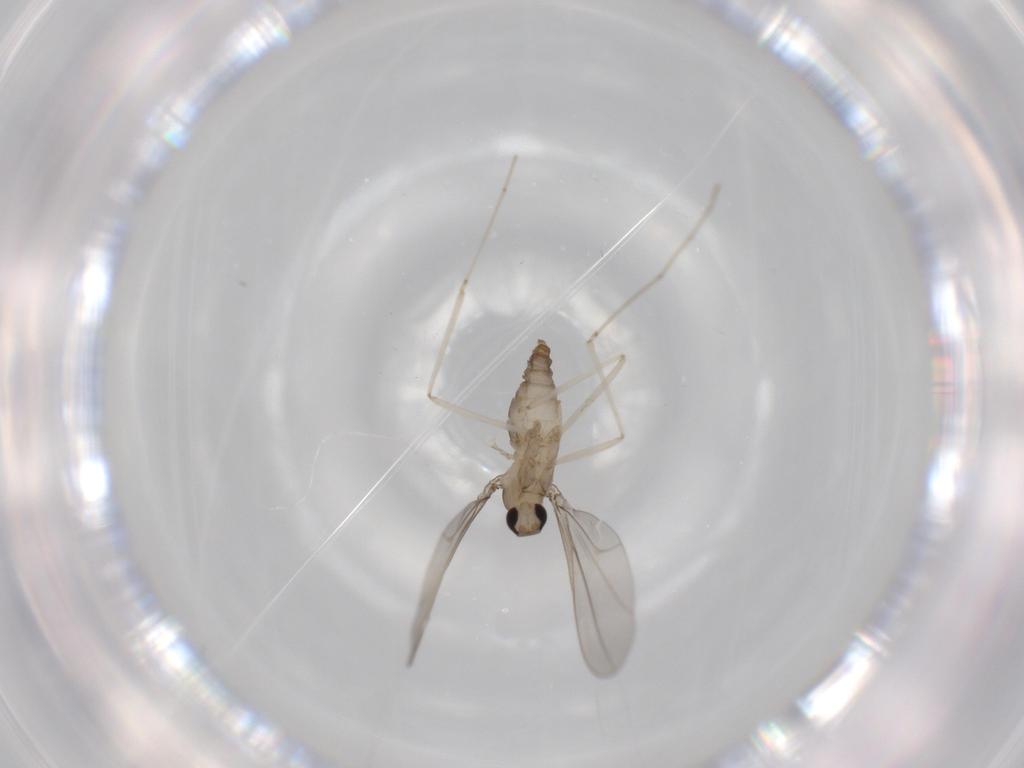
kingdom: Animalia
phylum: Arthropoda
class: Insecta
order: Diptera
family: Cecidomyiidae
